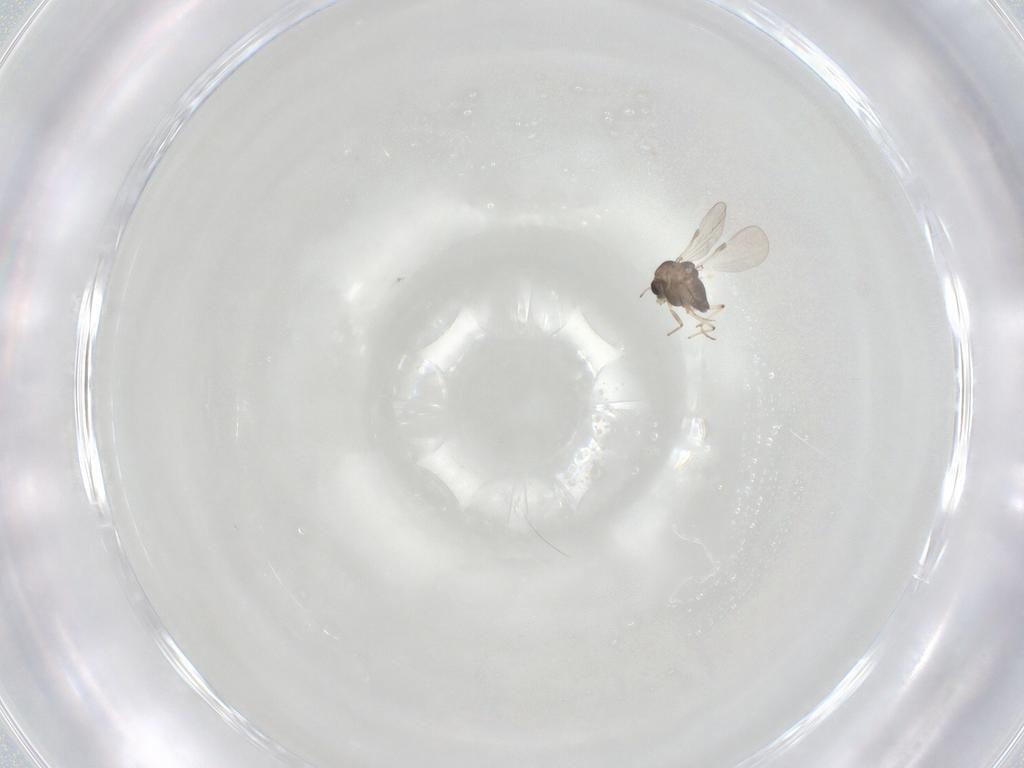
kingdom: Animalia
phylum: Arthropoda
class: Insecta
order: Diptera
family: Chironomidae
